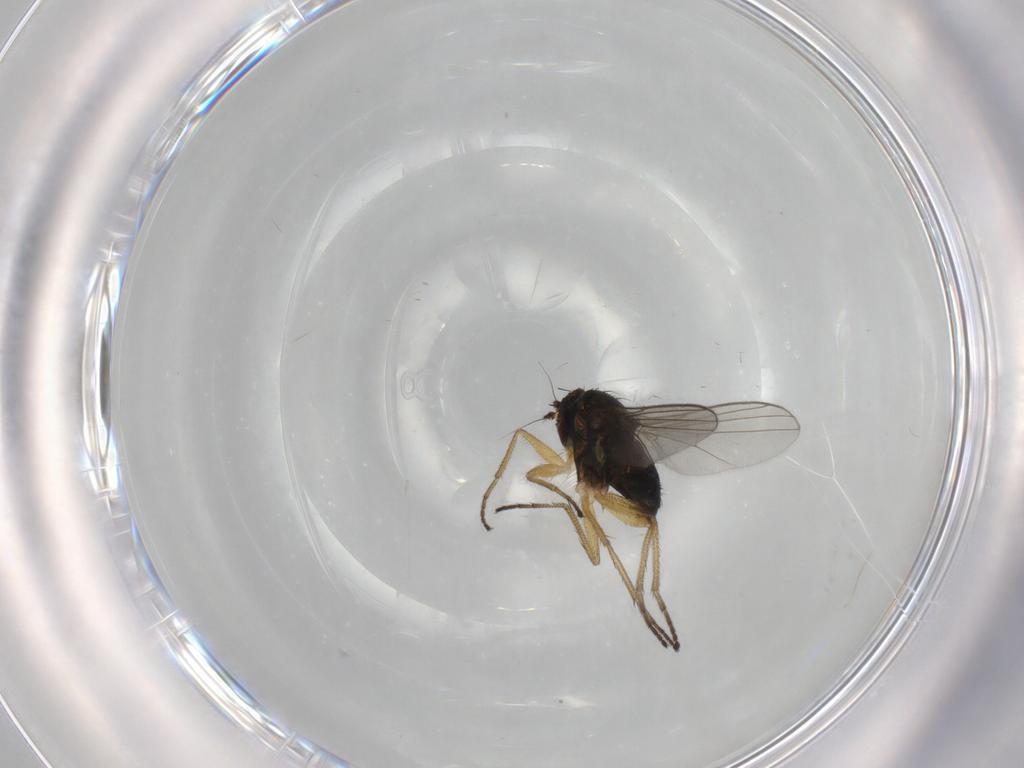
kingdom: Animalia
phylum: Arthropoda
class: Insecta
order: Diptera
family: Dolichopodidae
